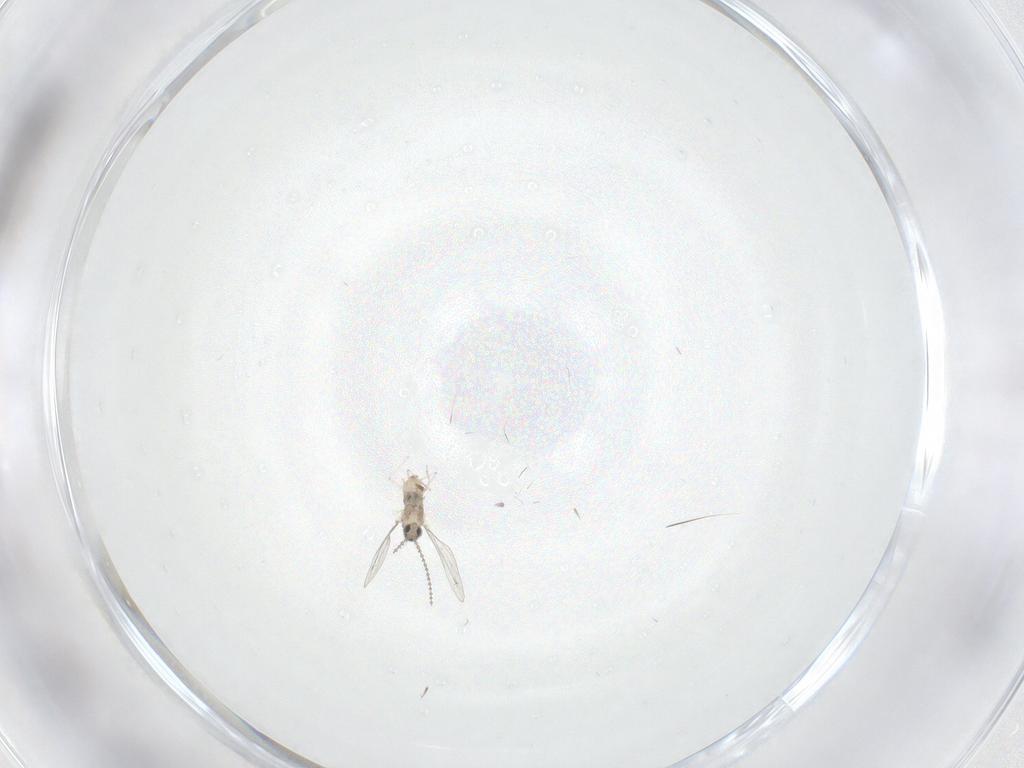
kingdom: Animalia
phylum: Arthropoda
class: Insecta
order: Diptera
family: Cecidomyiidae
